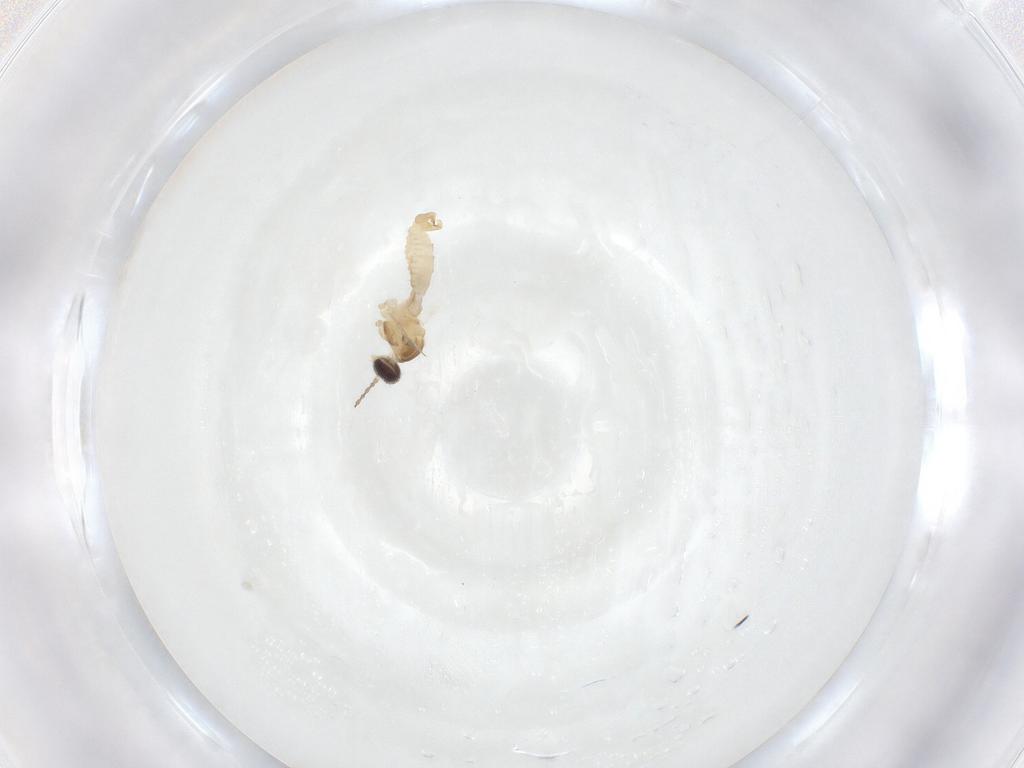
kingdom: Animalia
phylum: Arthropoda
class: Insecta
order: Diptera
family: Cecidomyiidae
